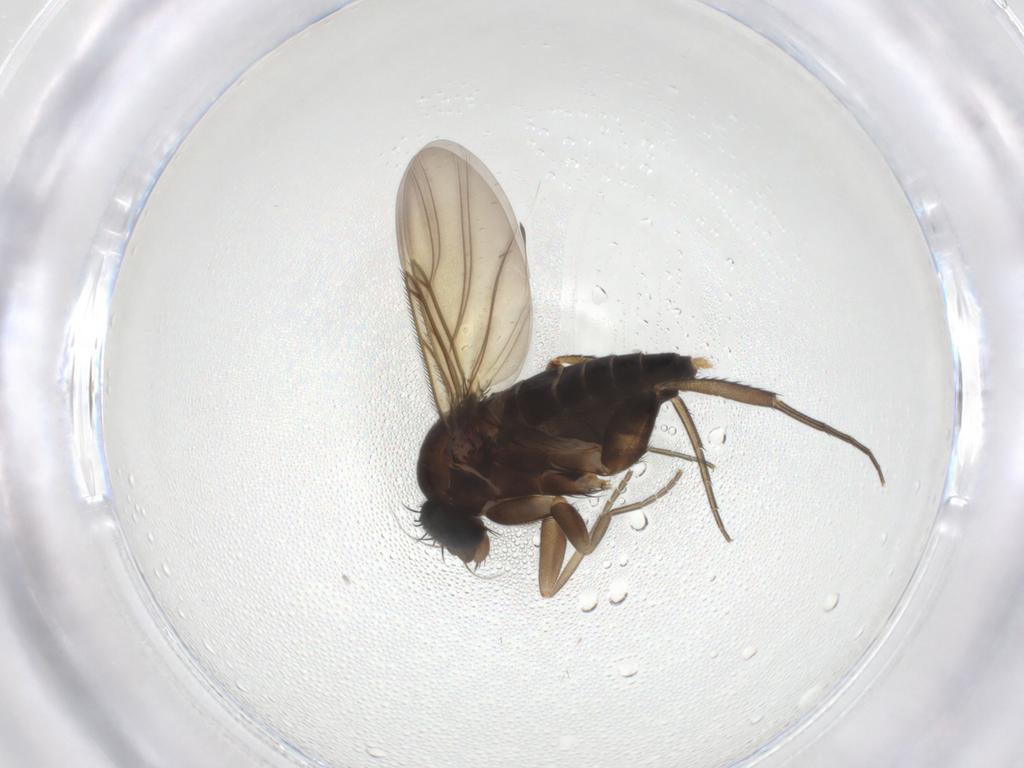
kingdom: Animalia
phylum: Arthropoda
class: Insecta
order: Diptera
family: Phoridae
